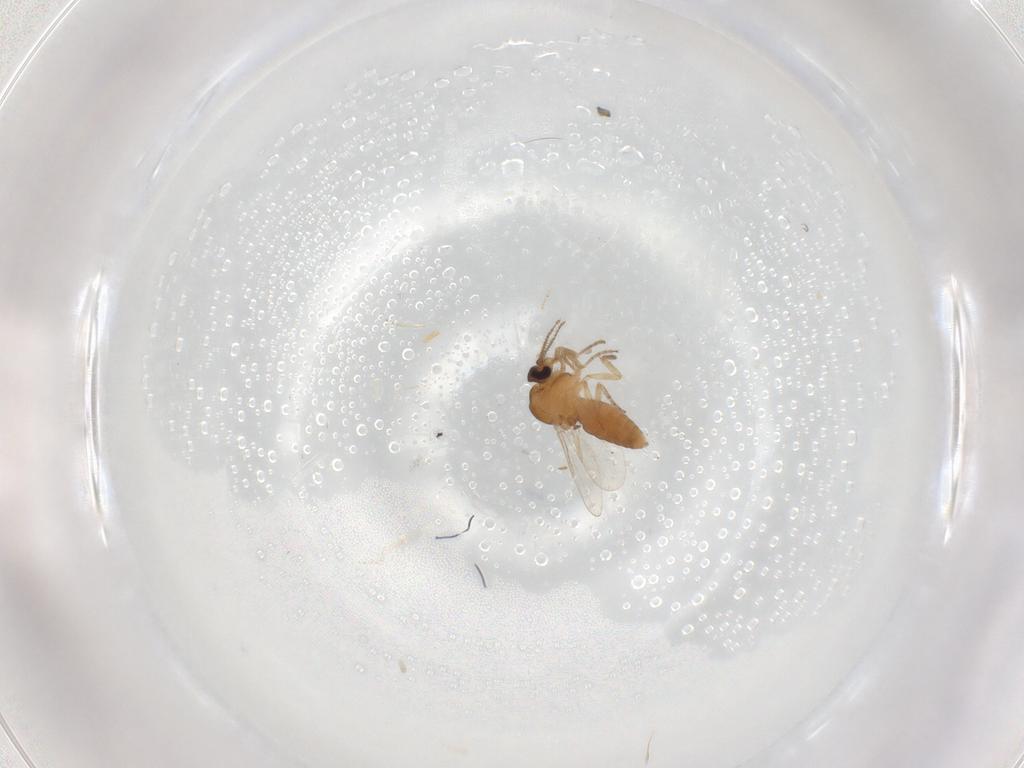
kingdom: Animalia
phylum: Arthropoda
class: Insecta
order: Diptera
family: Ceratopogonidae
